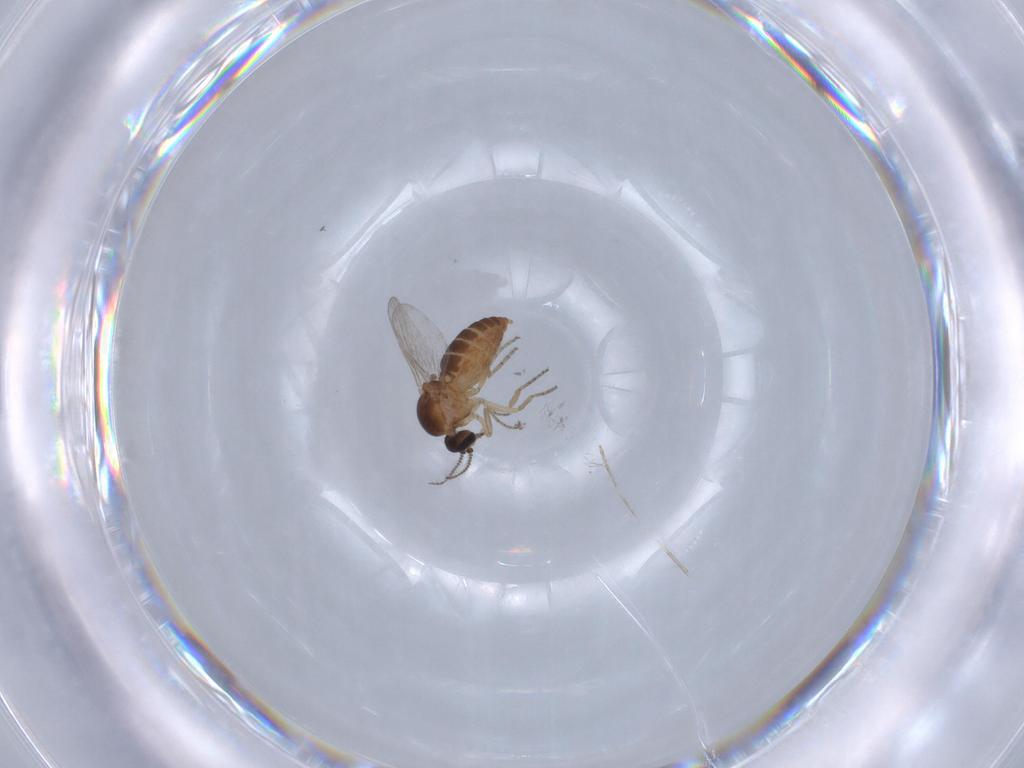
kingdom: Animalia
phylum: Arthropoda
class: Insecta
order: Diptera
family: Ceratopogonidae
